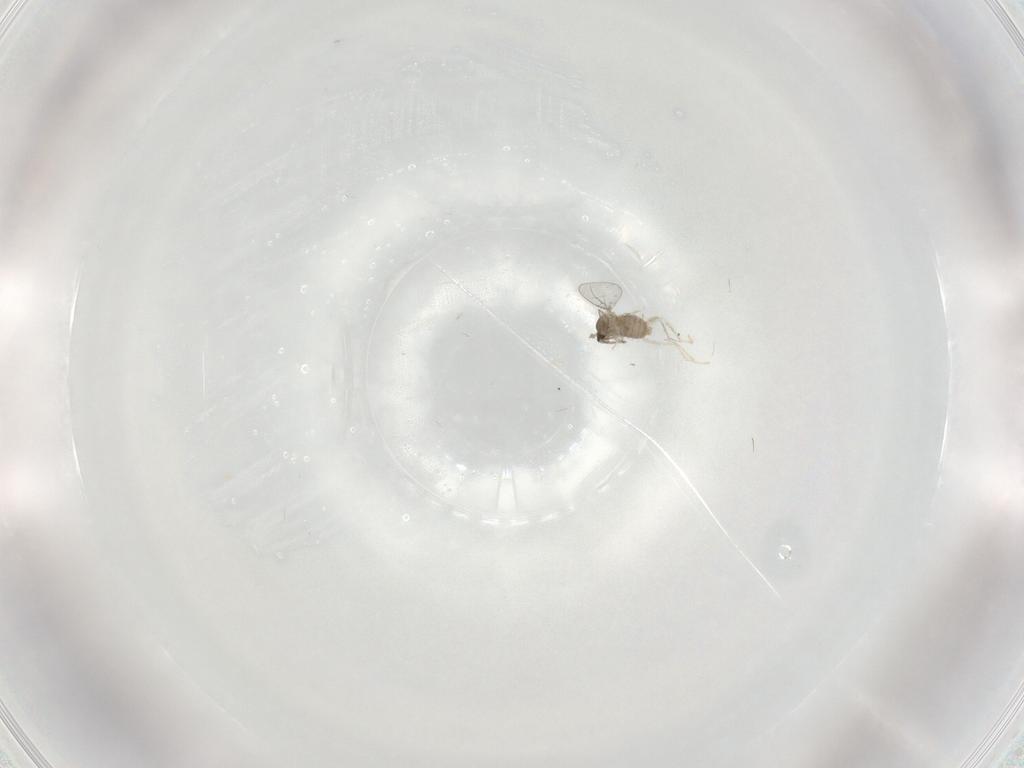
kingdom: Animalia
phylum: Arthropoda
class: Insecta
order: Diptera
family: Cecidomyiidae
